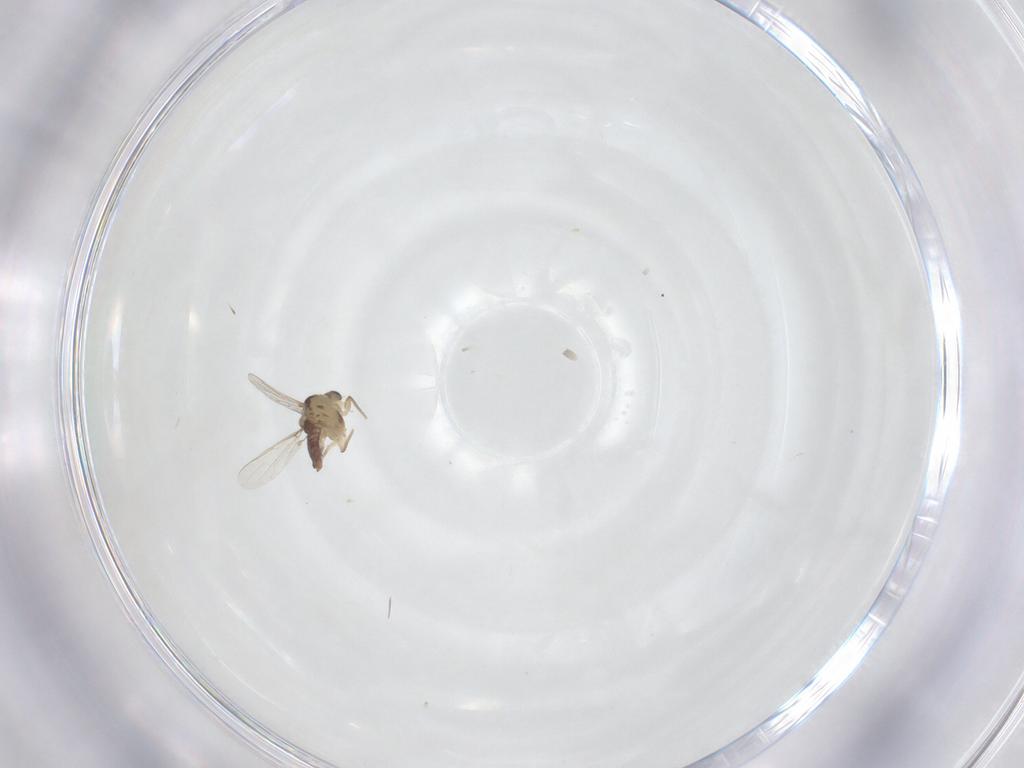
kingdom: Animalia
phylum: Arthropoda
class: Insecta
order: Diptera
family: Chironomidae
